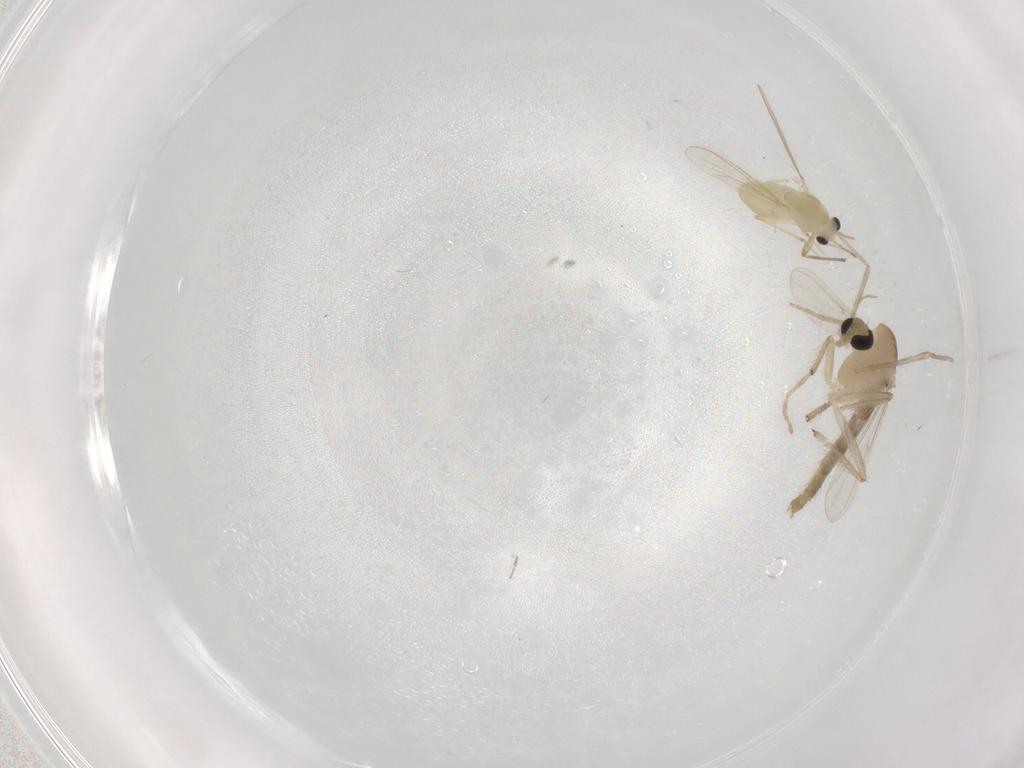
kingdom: Animalia
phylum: Arthropoda
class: Insecta
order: Diptera
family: Chironomidae
